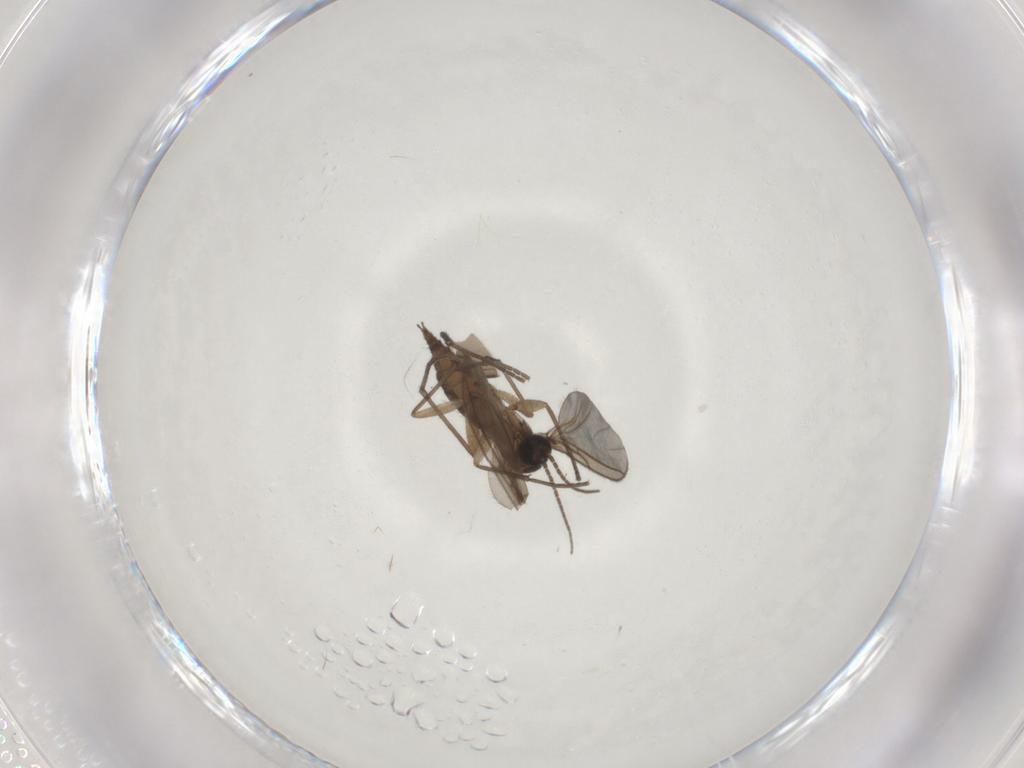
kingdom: Animalia
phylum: Arthropoda
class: Insecta
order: Diptera
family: Sciaridae
